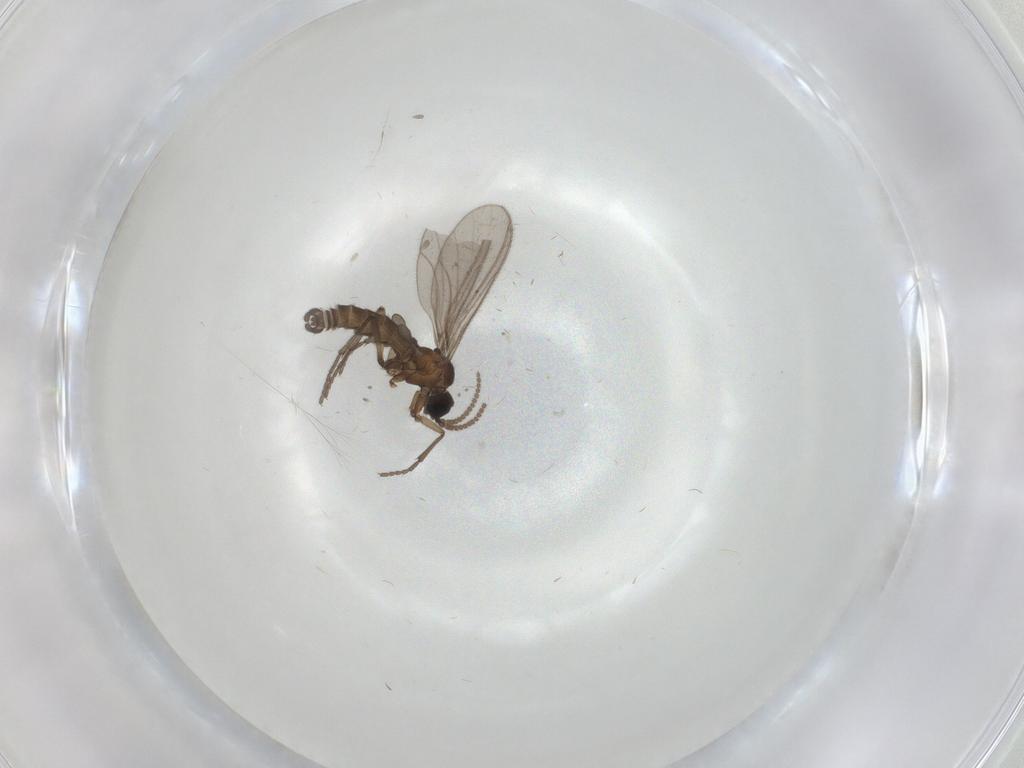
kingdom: Animalia
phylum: Arthropoda
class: Insecta
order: Diptera
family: Sciaridae
